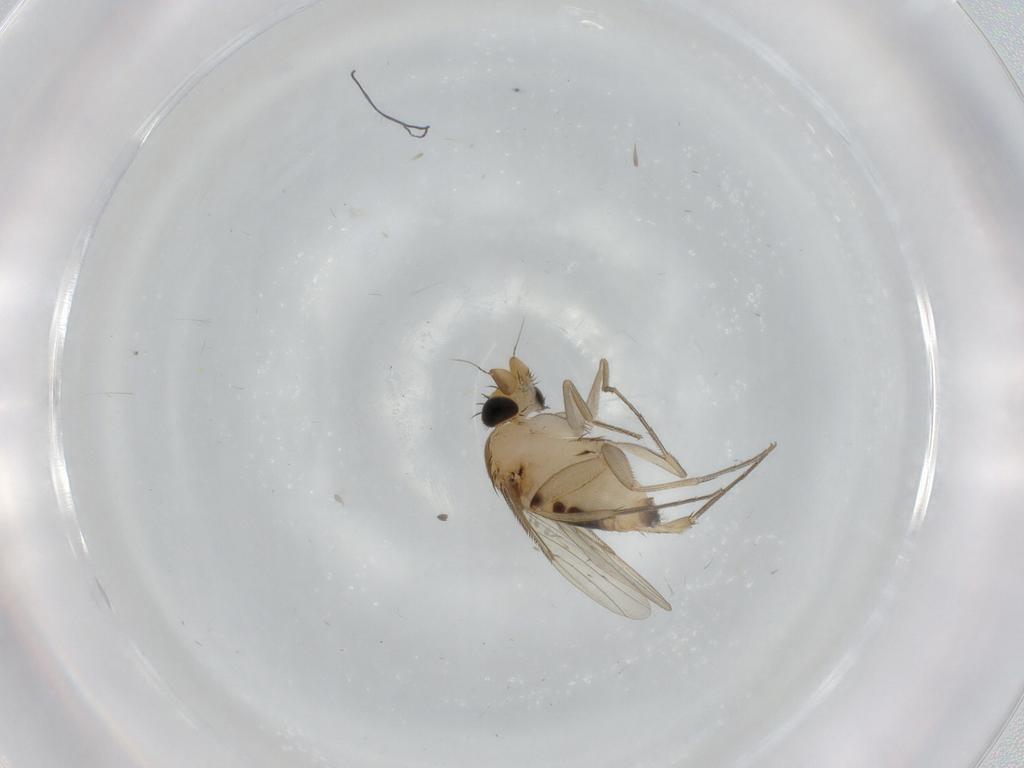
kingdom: Animalia
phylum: Arthropoda
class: Insecta
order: Diptera
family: Phoridae
